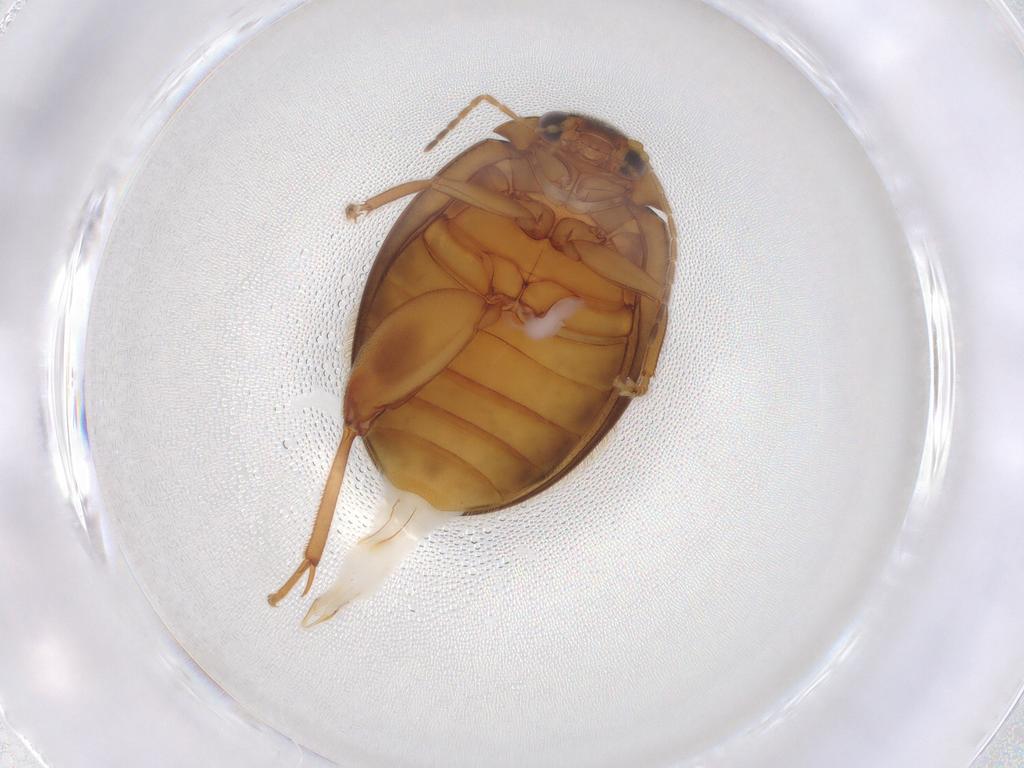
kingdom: Animalia
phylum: Arthropoda
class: Insecta
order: Coleoptera
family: Scirtidae
